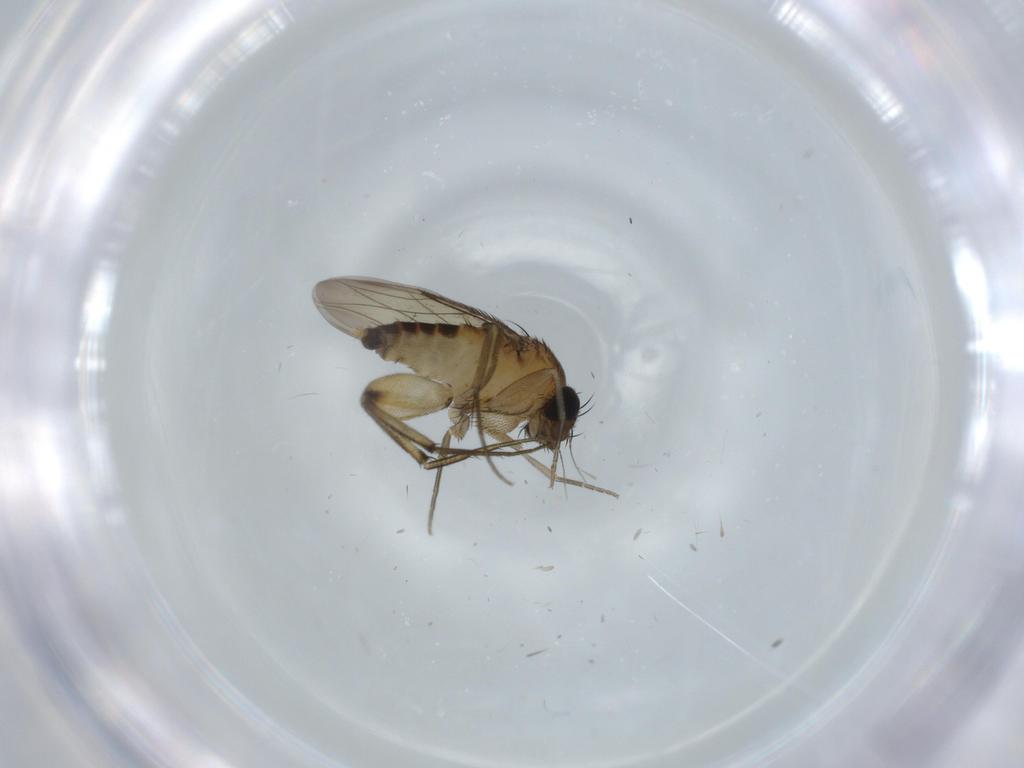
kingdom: Animalia
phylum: Arthropoda
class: Insecta
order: Diptera
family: Phoridae
